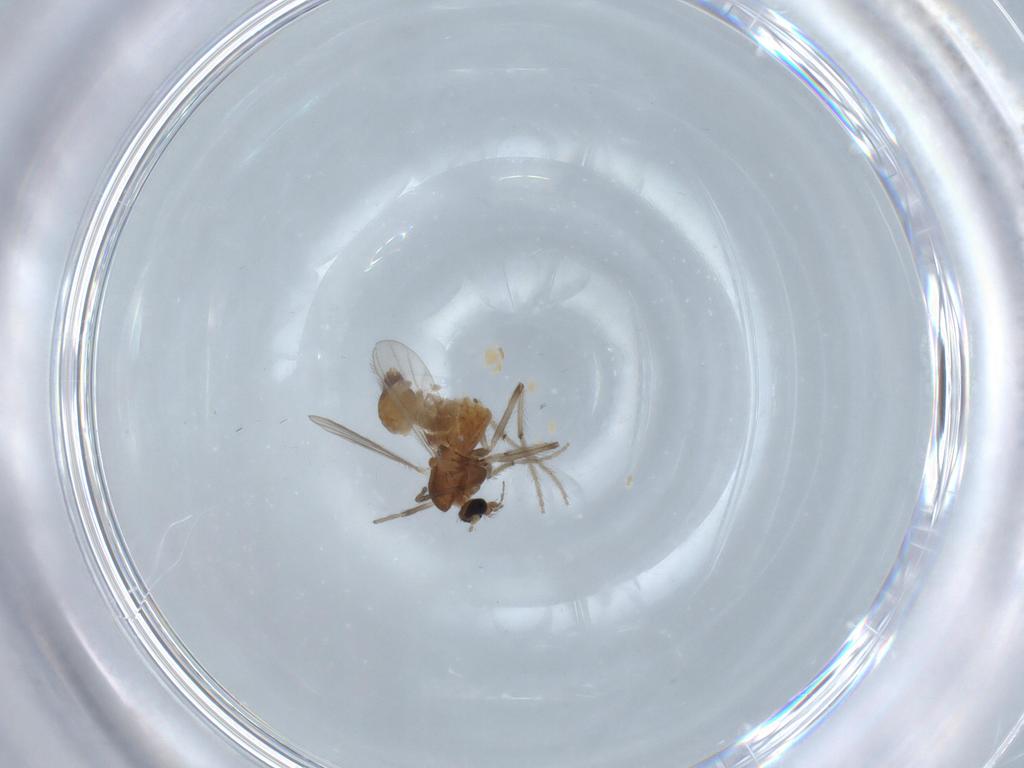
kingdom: Animalia
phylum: Arthropoda
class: Insecta
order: Diptera
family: Chironomidae
